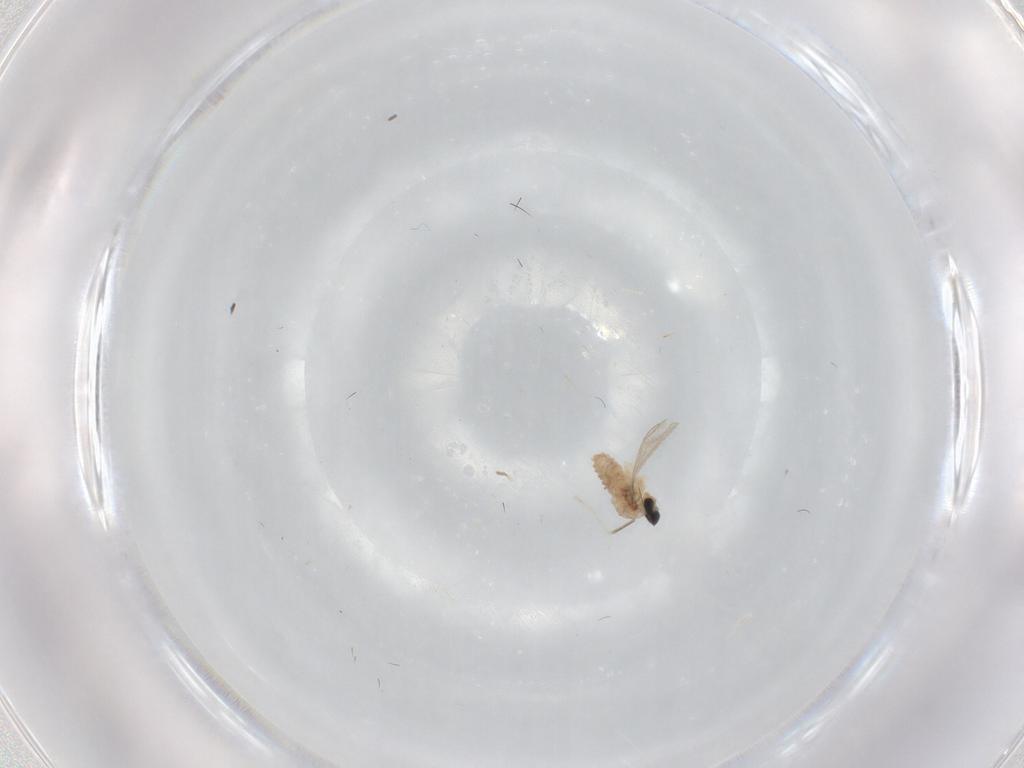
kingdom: Animalia
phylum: Arthropoda
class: Insecta
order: Diptera
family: Cecidomyiidae
